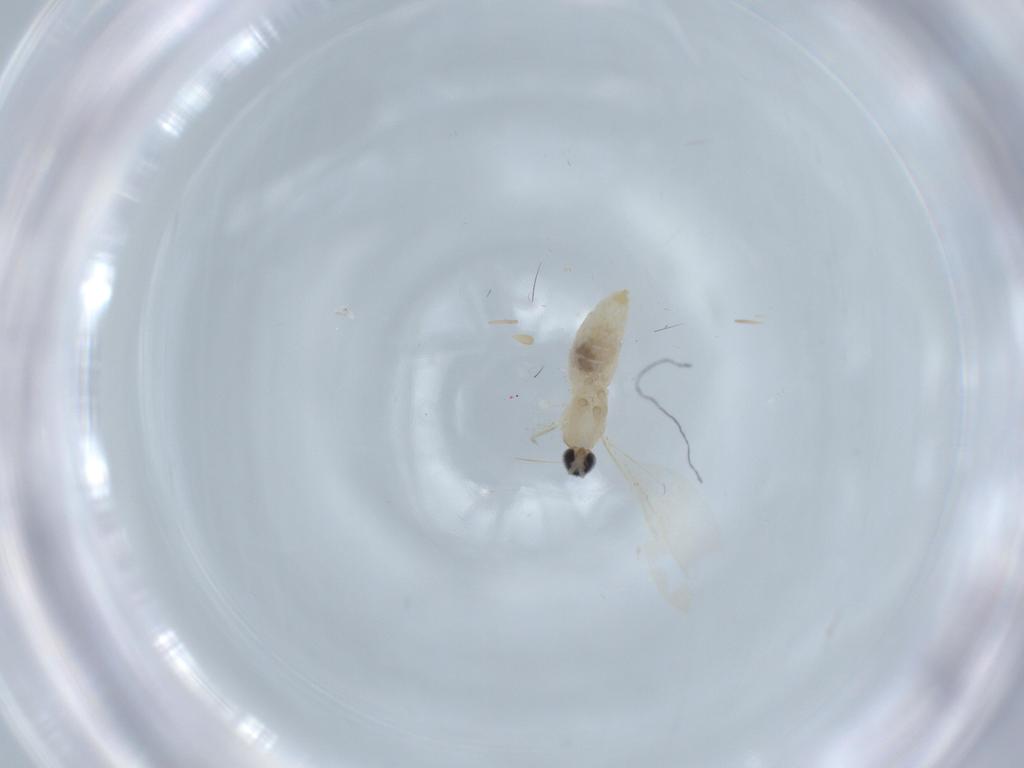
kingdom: Animalia
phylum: Arthropoda
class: Insecta
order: Diptera
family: Cecidomyiidae
